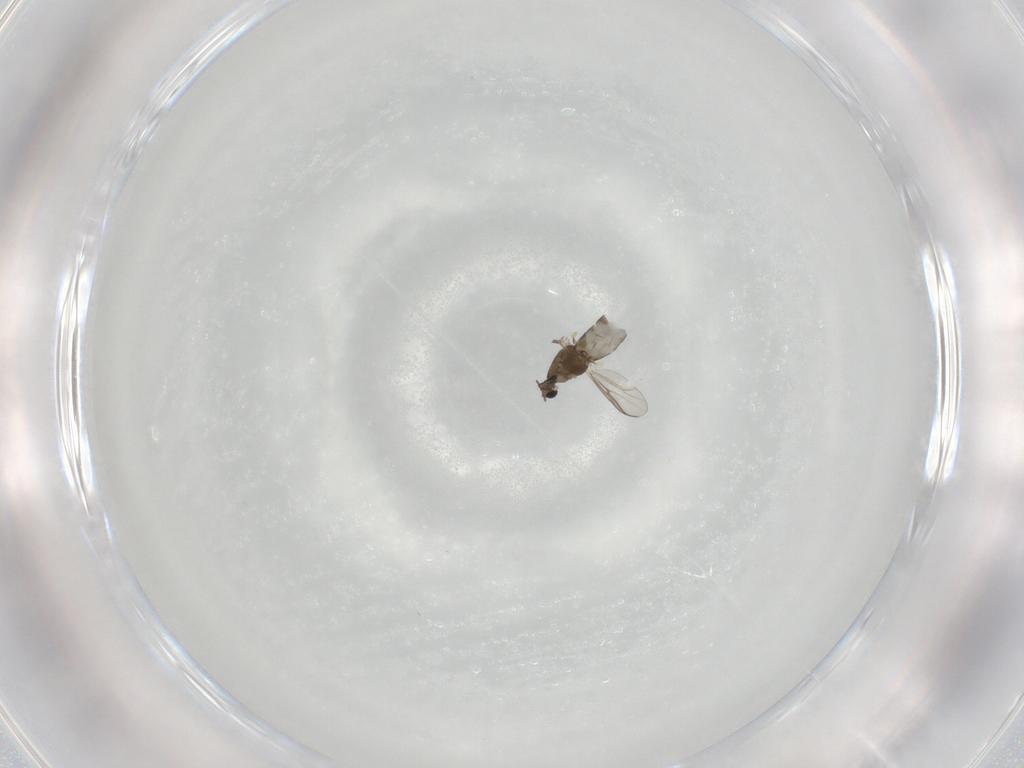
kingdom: Animalia
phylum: Arthropoda
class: Insecta
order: Diptera
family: Chironomidae
